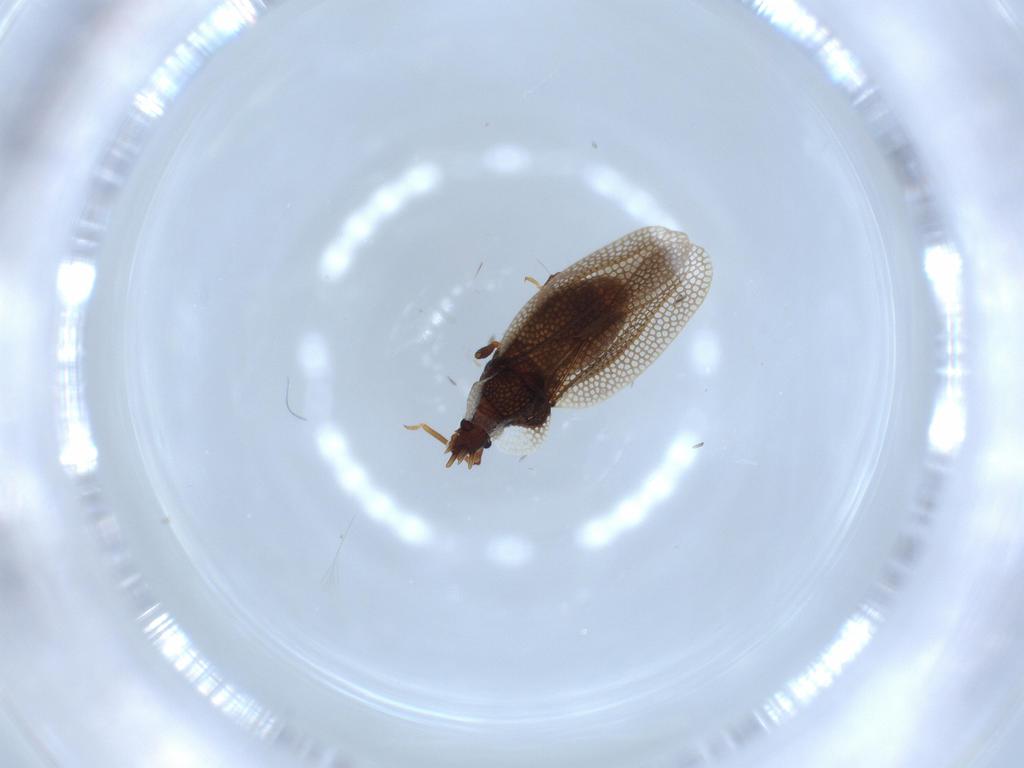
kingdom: Animalia
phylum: Arthropoda
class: Insecta
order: Hemiptera
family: Tingidae
